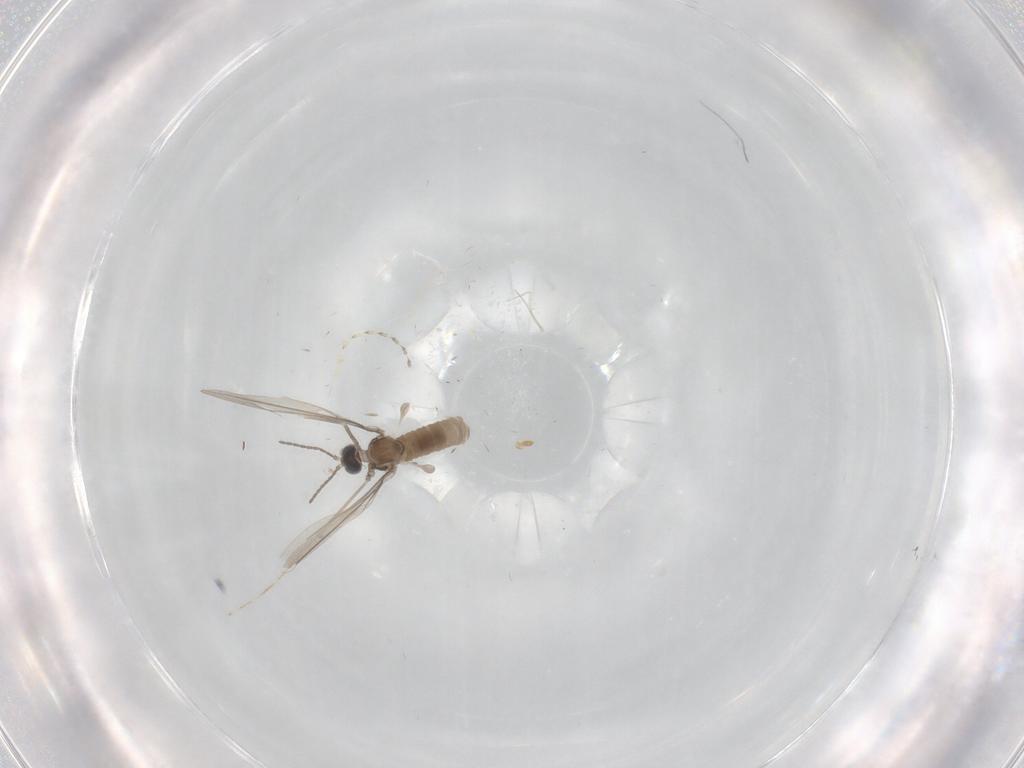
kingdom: Animalia
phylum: Arthropoda
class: Insecta
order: Diptera
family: Cecidomyiidae
